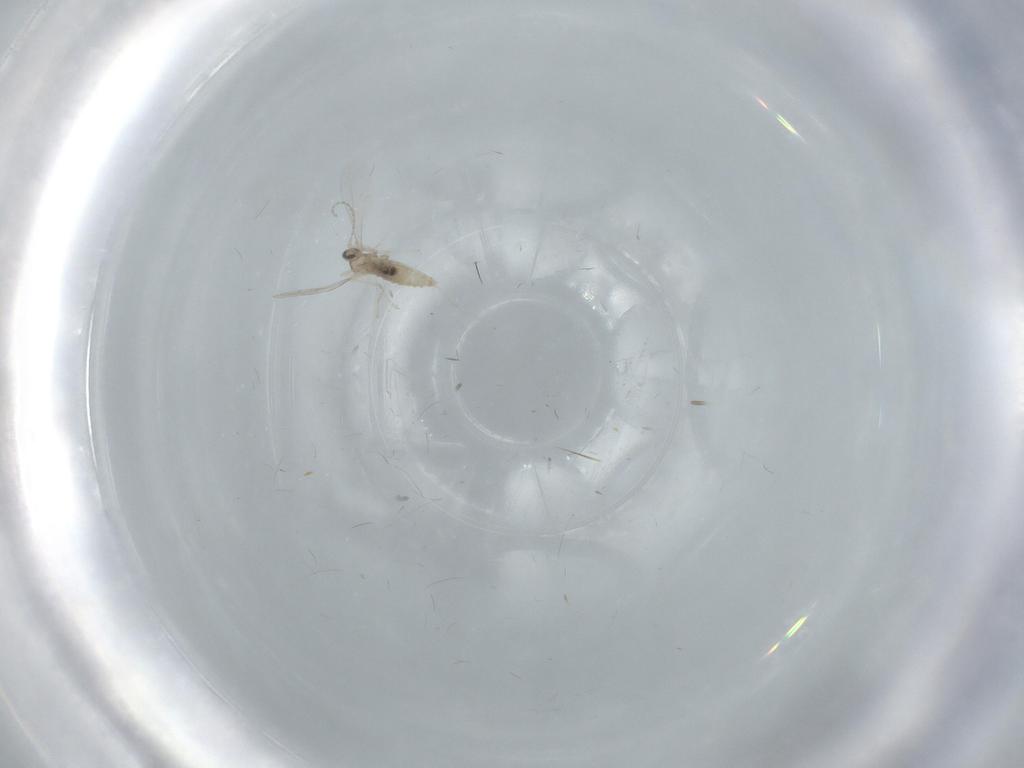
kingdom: Animalia
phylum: Arthropoda
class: Insecta
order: Diptera
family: Cecidomyiidae
